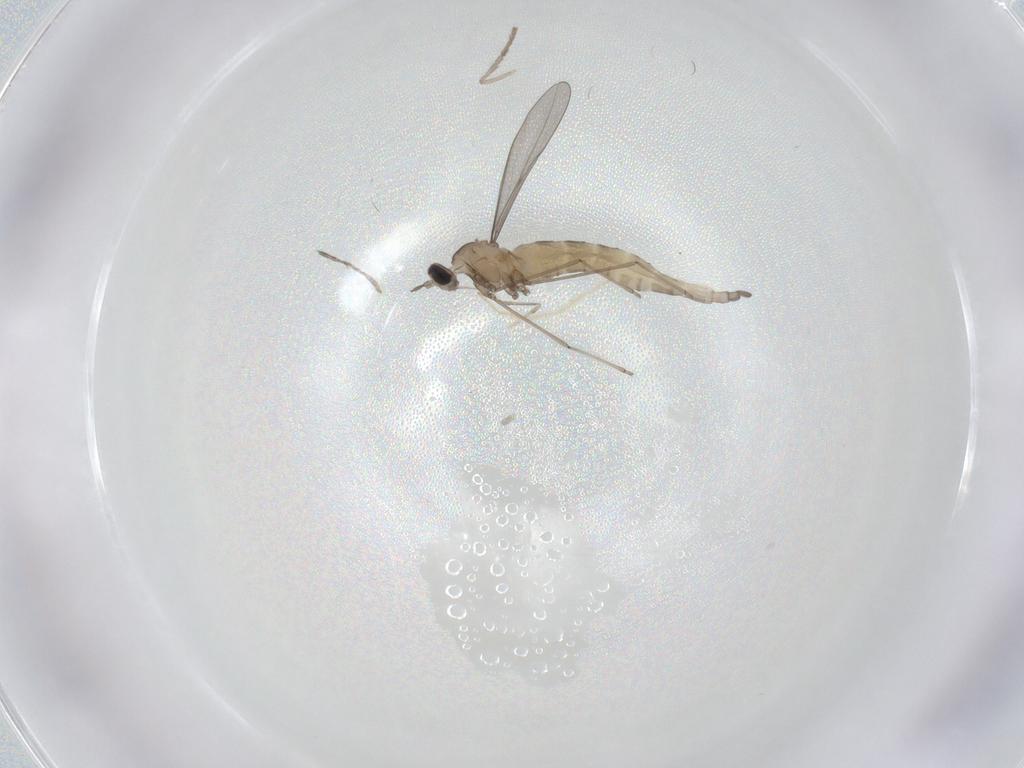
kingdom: Animalia
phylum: Arthropoda
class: Insecta
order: Diptera
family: Cecidomyiidae
